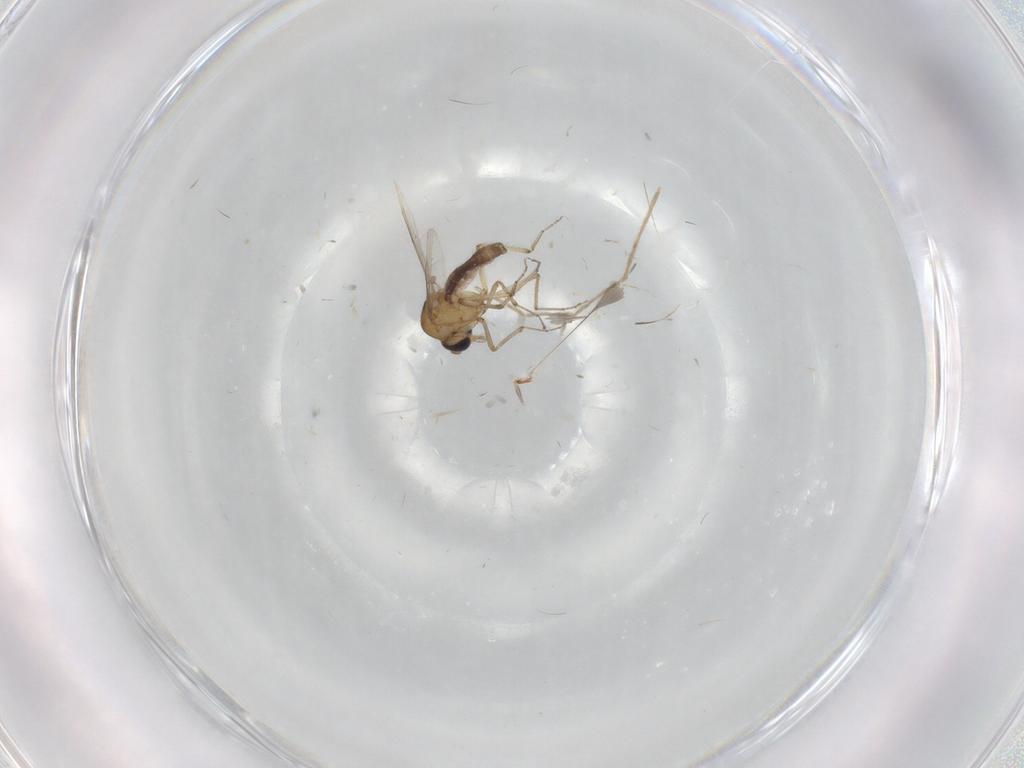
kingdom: Animalia
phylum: Arthropoda
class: Insecta
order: Diptera
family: Chironomidae
